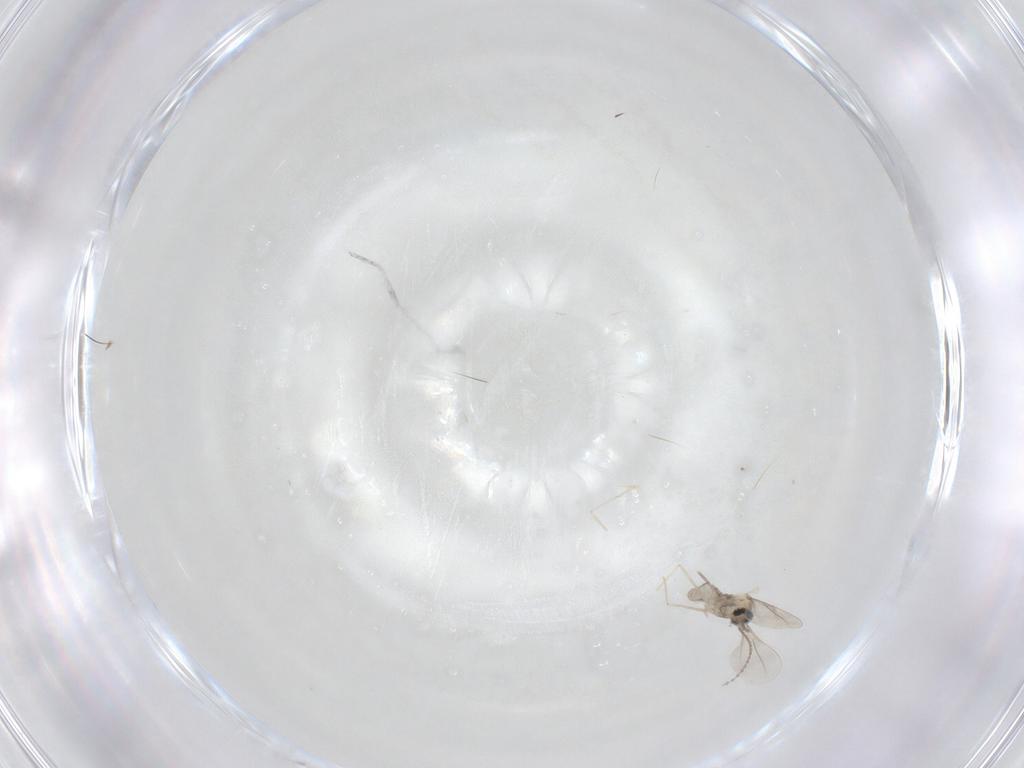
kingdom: Animalia
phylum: Arthropoda
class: Insecta
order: Diptera
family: Cecidomyiidae
